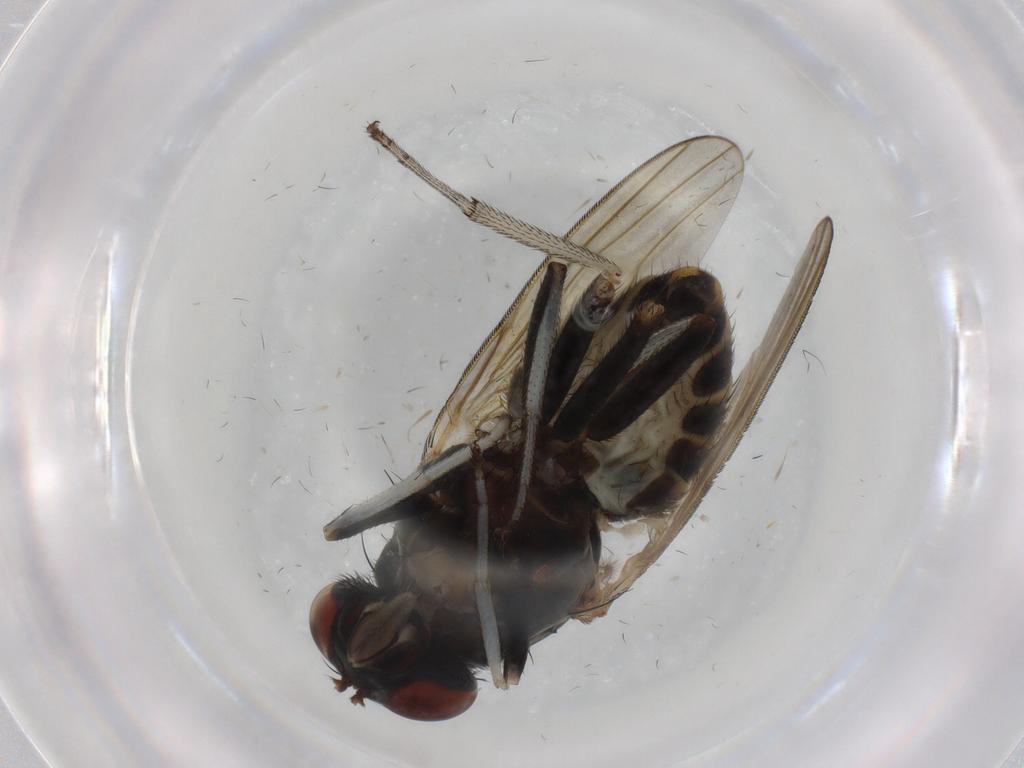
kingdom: Animalia
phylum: Arthropoda
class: Insecta
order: Diptera
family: Ceratopogonidae
